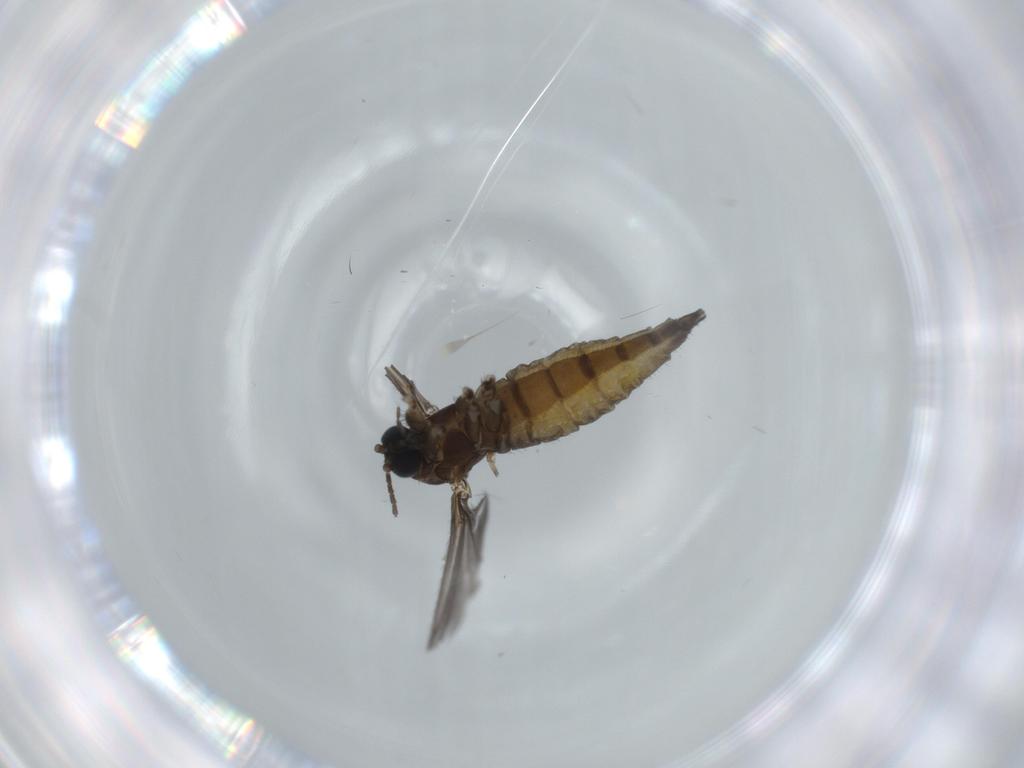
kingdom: Animalia
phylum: Arthropoda
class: Insecta
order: Diptera
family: Sciaridae
